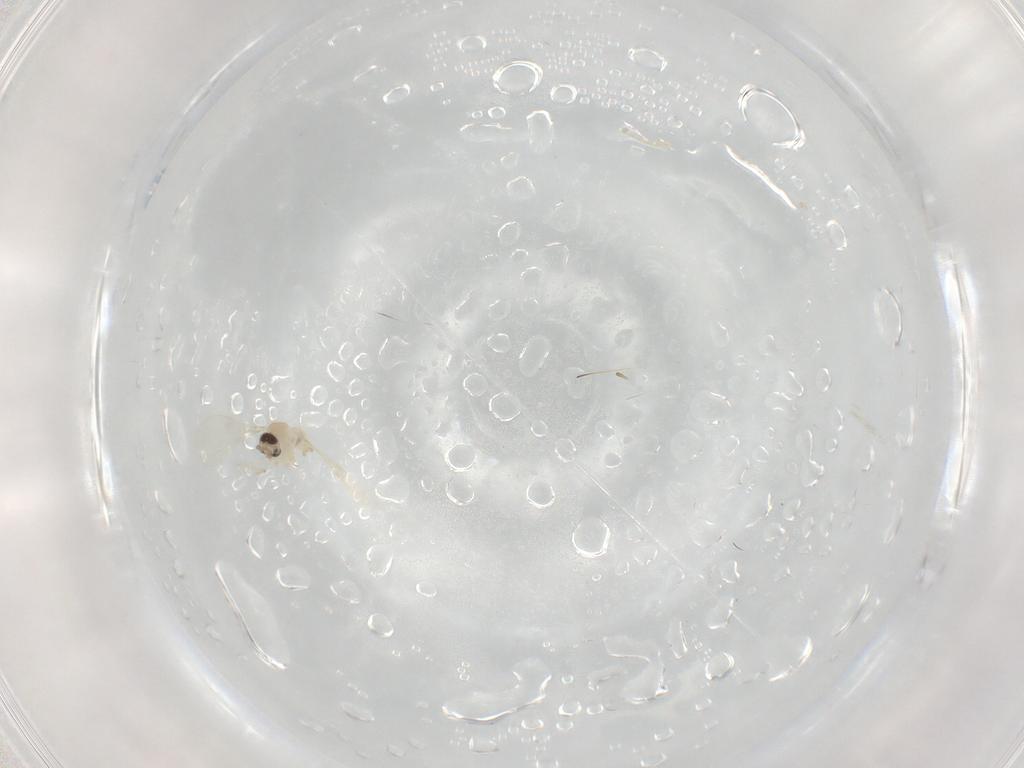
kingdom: Animalia
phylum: Arthropoda
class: Insecta
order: Diptera
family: Cecidomyiidae
